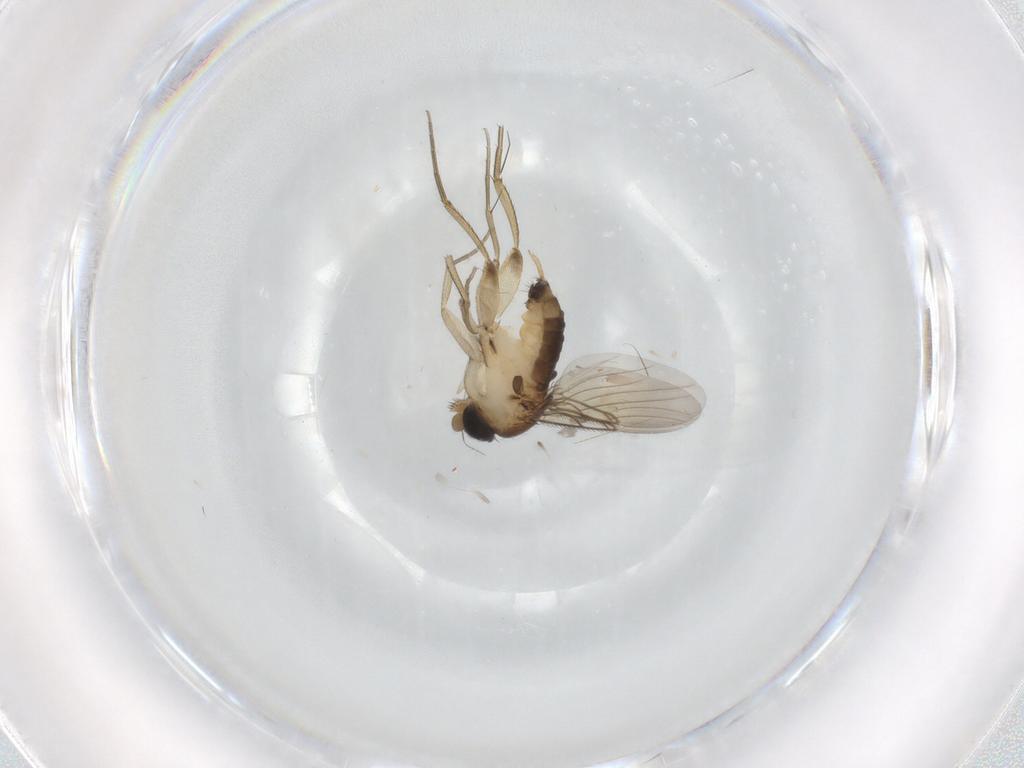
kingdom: Animalia
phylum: Arthropoda
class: Insecta
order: Diptera
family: Phoridae
